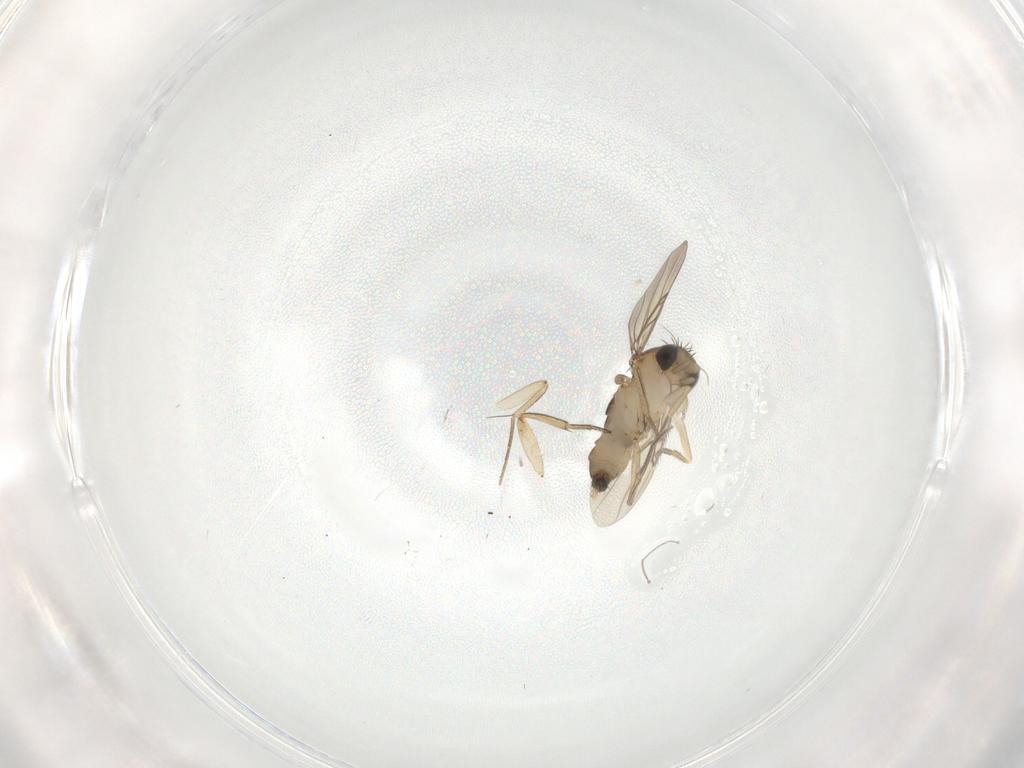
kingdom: Animalia
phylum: Arthropoda
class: Insecta
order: Diptera
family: Phoridae
